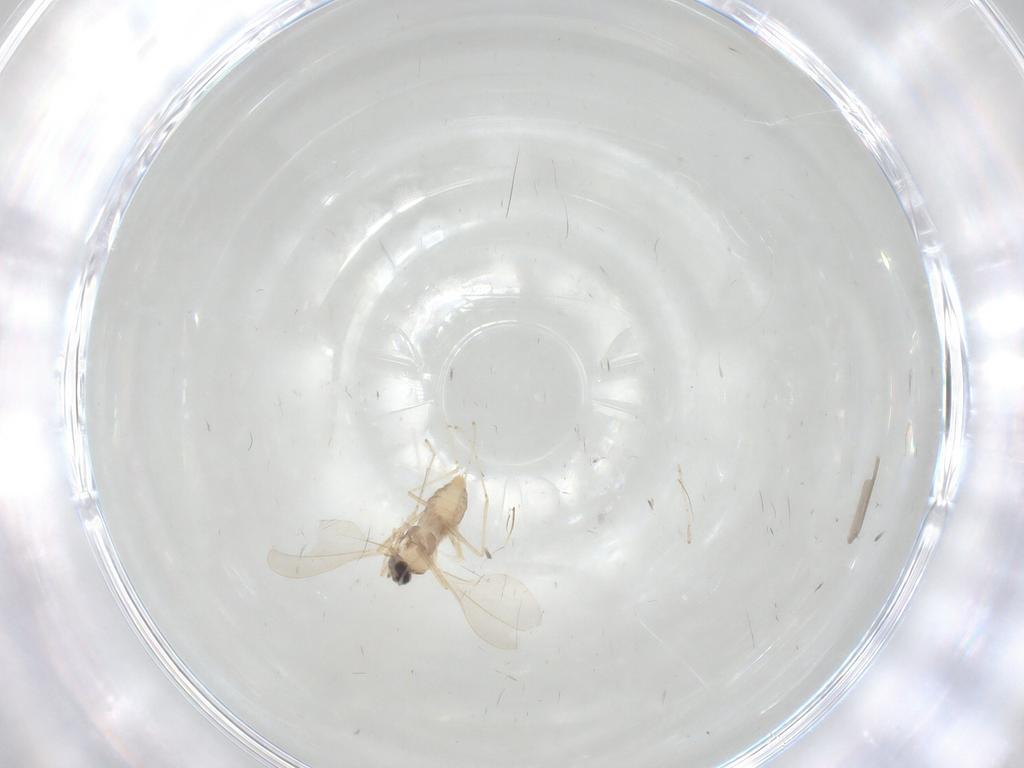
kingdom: Animalia
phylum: Arthropoda
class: Insecta
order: Diptera
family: Cecidomyiidae
